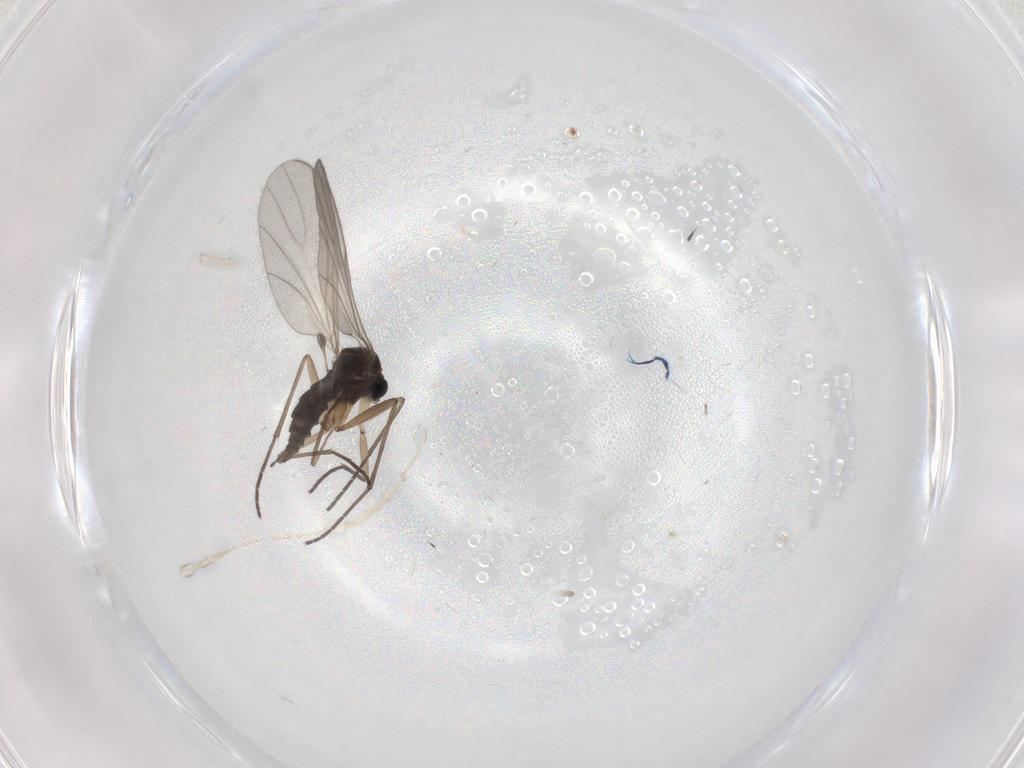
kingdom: Animalia
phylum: Arthropoda
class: Insecta
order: Diptera
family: Sciaridae
